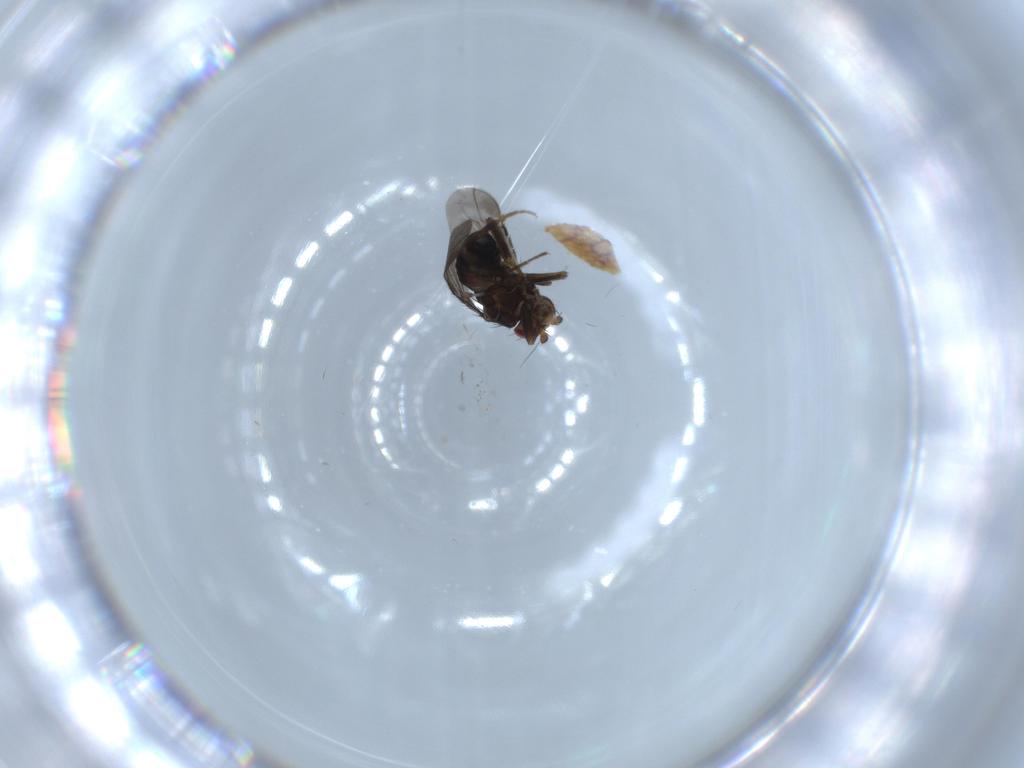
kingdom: Animalia
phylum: Arthropoda
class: Insecta
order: Diptera
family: Sphaeroceridae
